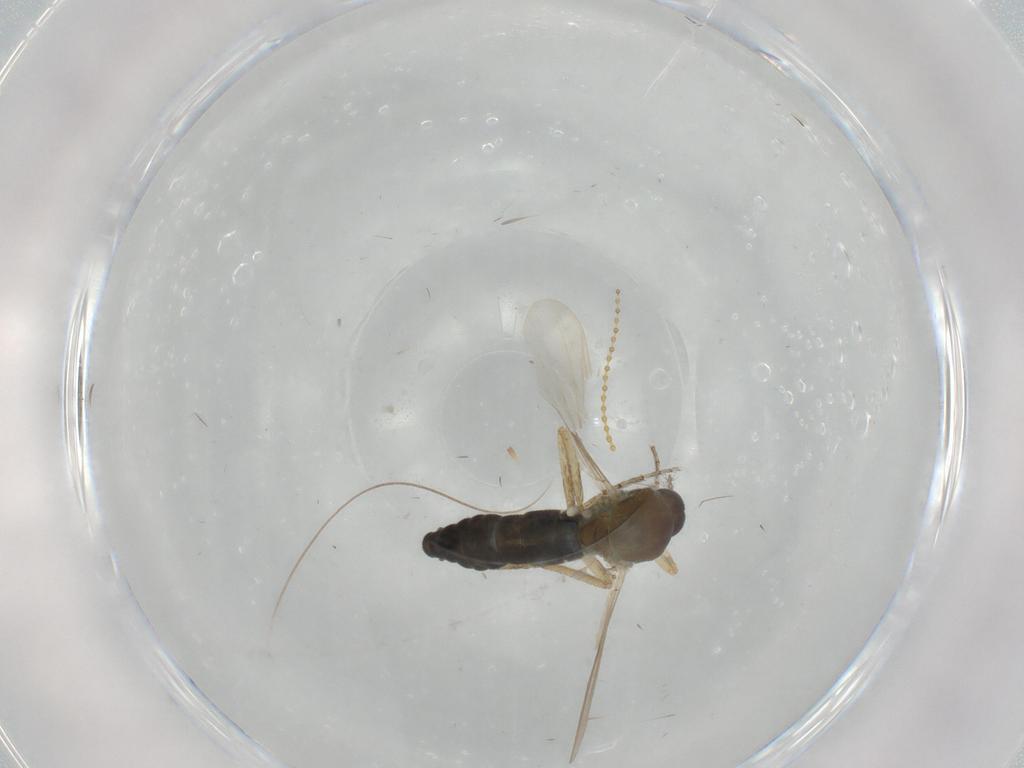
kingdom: Animalia
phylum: Arthropoda
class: Insecta
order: Diptera
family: Ceratopogonidae
